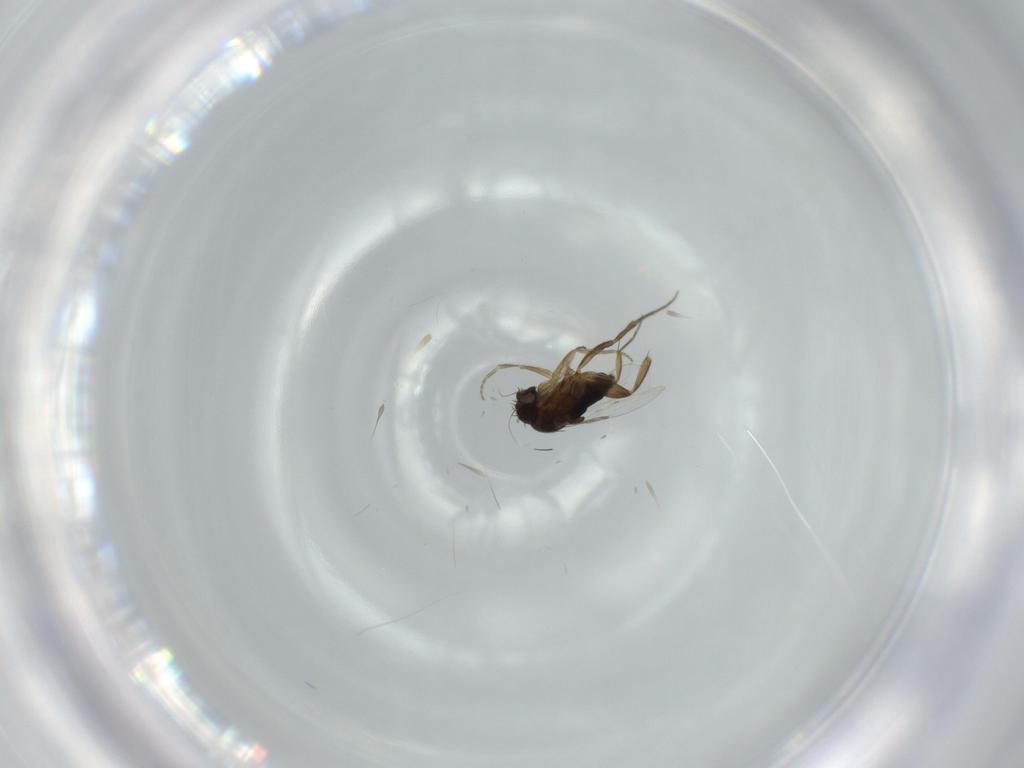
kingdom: Animalia
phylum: Arthropoda
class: Insecta
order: Diptera
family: Phoridae
